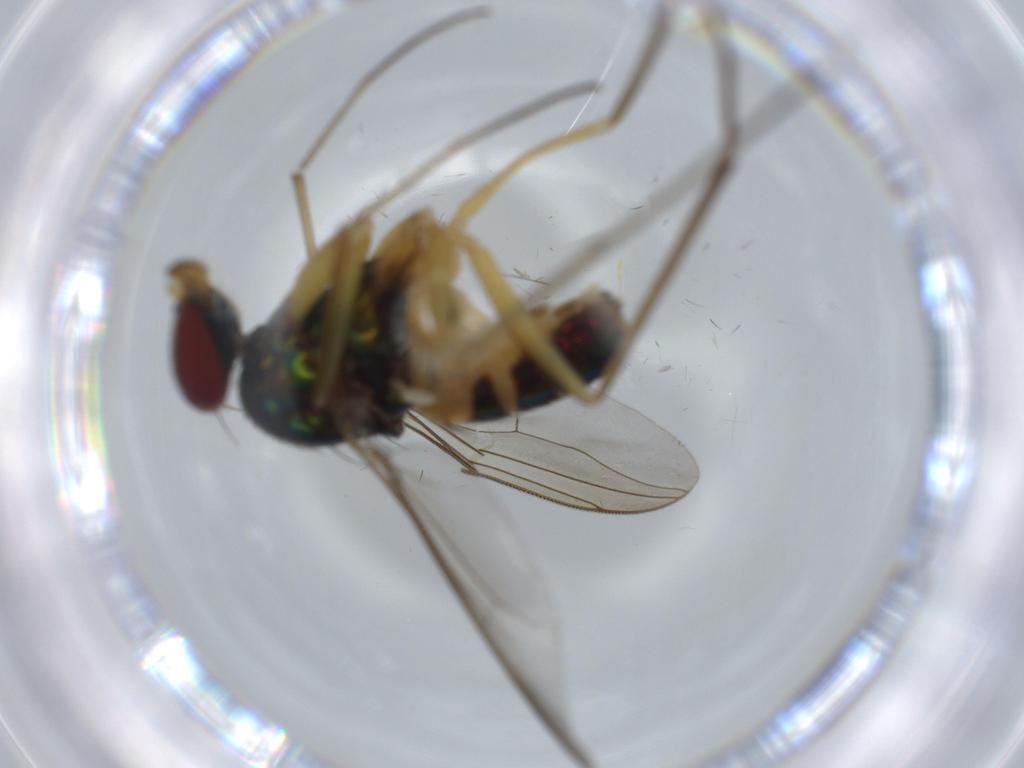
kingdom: Animalia
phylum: Arthropoda
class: Insecta
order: Diptera
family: Dolichopodidae
